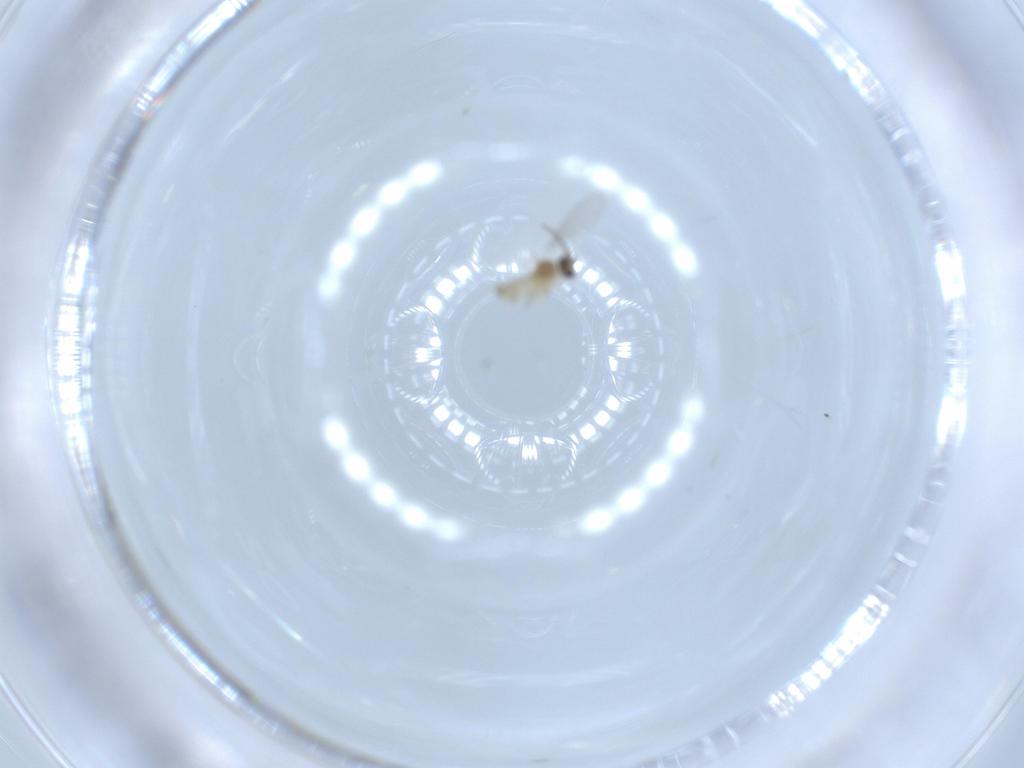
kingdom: Animalia
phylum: Arthropoda
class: Insecta
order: Diptera
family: Cecidomyiidae
